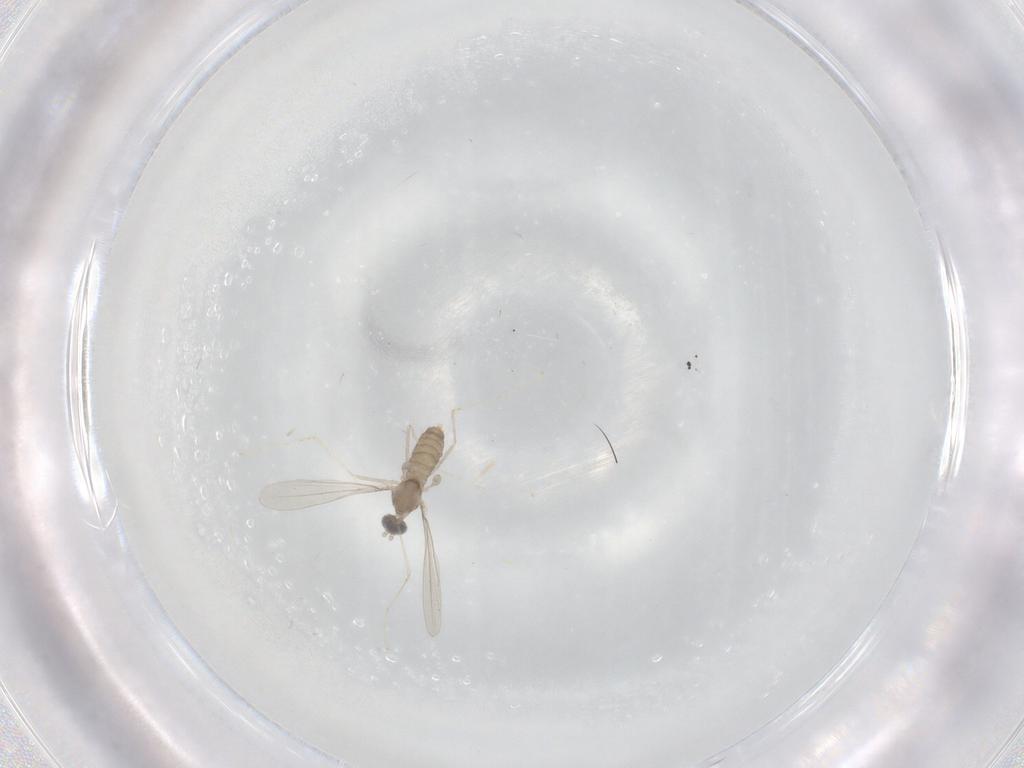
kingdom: Animalia
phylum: Arthropoda
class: Insecta
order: Diptera
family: Cecidomyiidae
